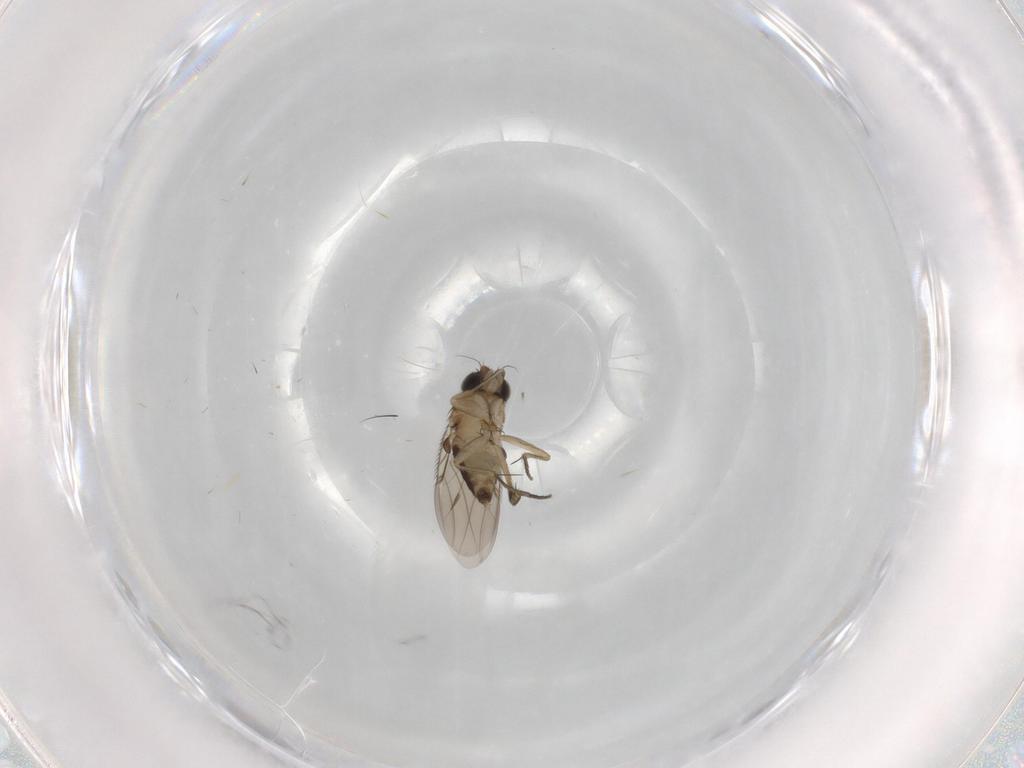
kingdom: Animalia
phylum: Arthropoda
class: Insecta
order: Diptera
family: Phoridae
